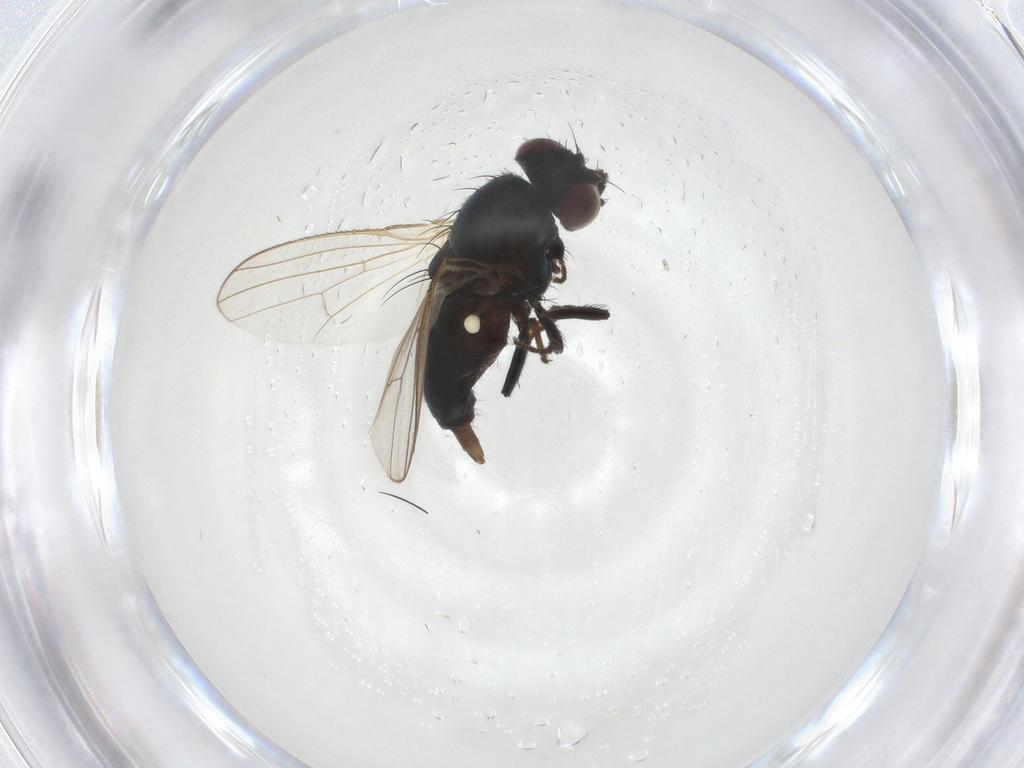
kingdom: Animalia
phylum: Arthropoda
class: Insecta
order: Diptera
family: Carnidae
